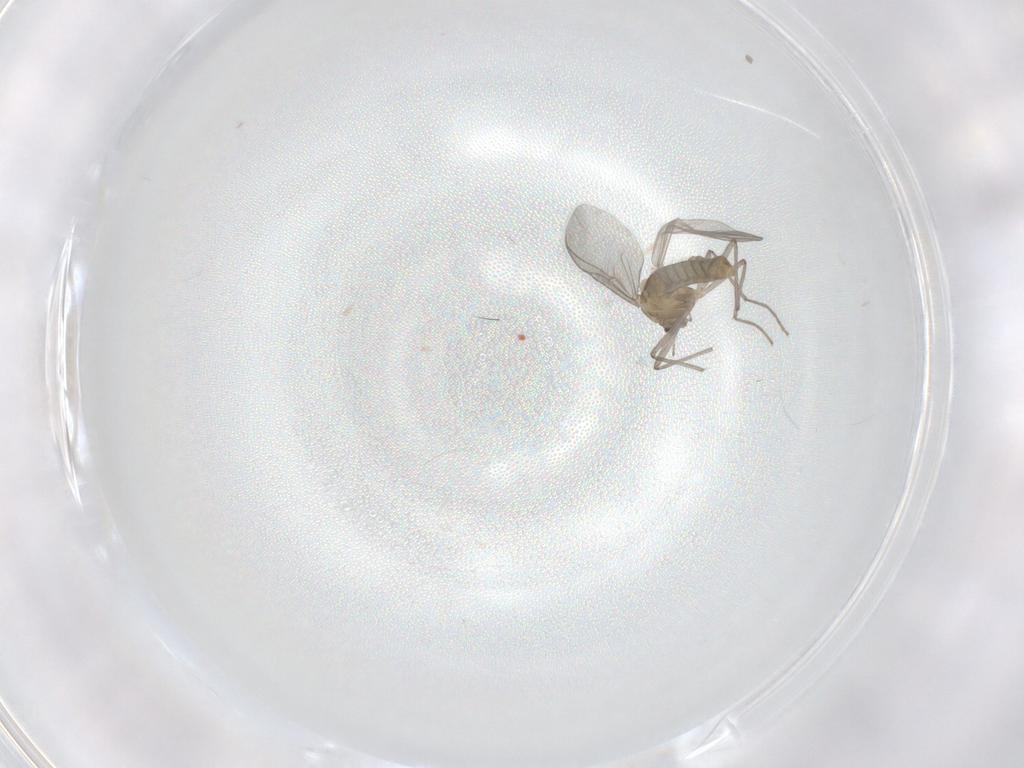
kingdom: Animalia
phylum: Arthropoda
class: Insecta
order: Diptera
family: Chironomidae
